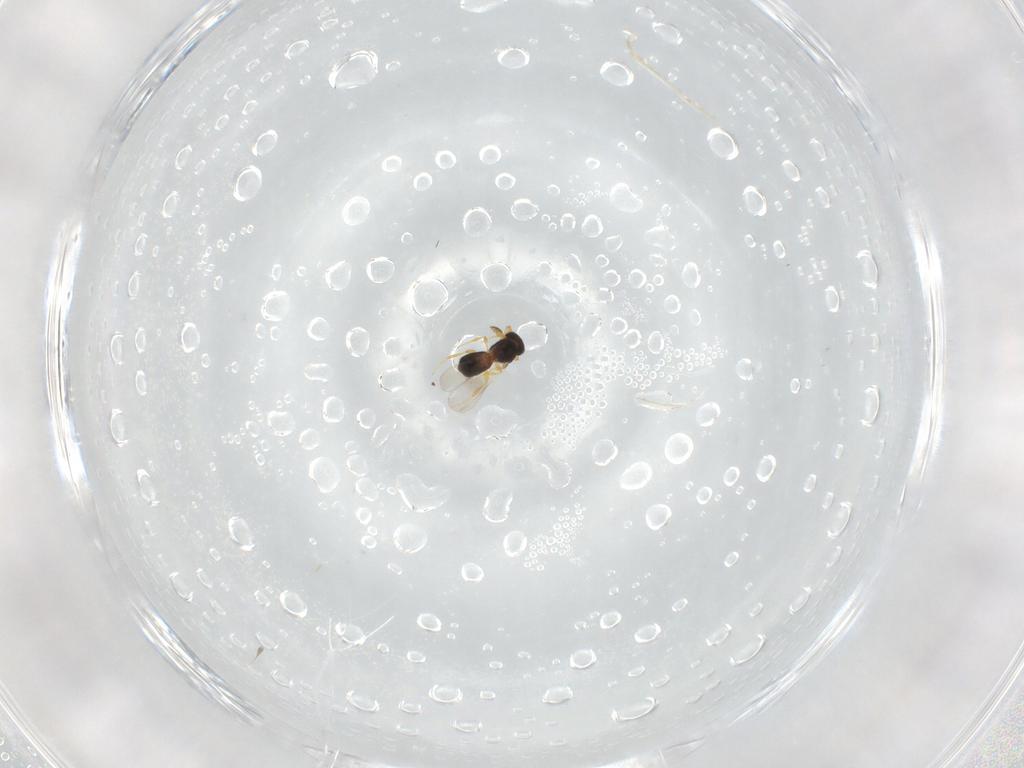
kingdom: Animalia
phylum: Arthropoda
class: Insecta
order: Hymenoptera
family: Platygastridae
